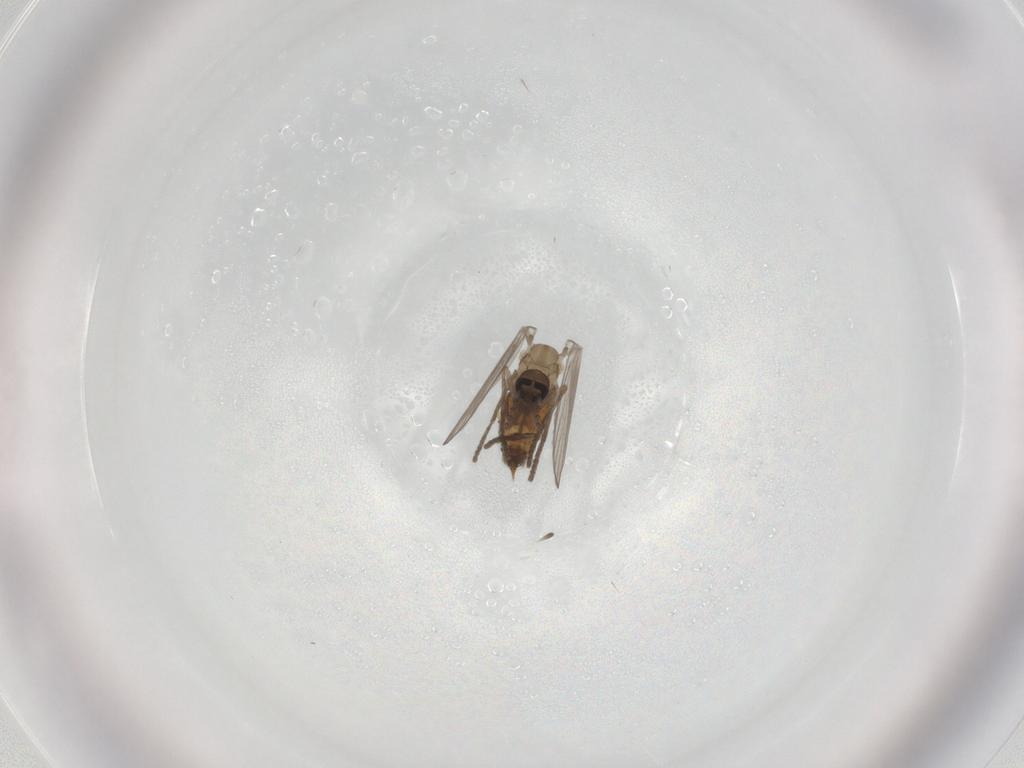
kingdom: Animalia
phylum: Arthropoda
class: Insecta
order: Diptera
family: Psychodidae
